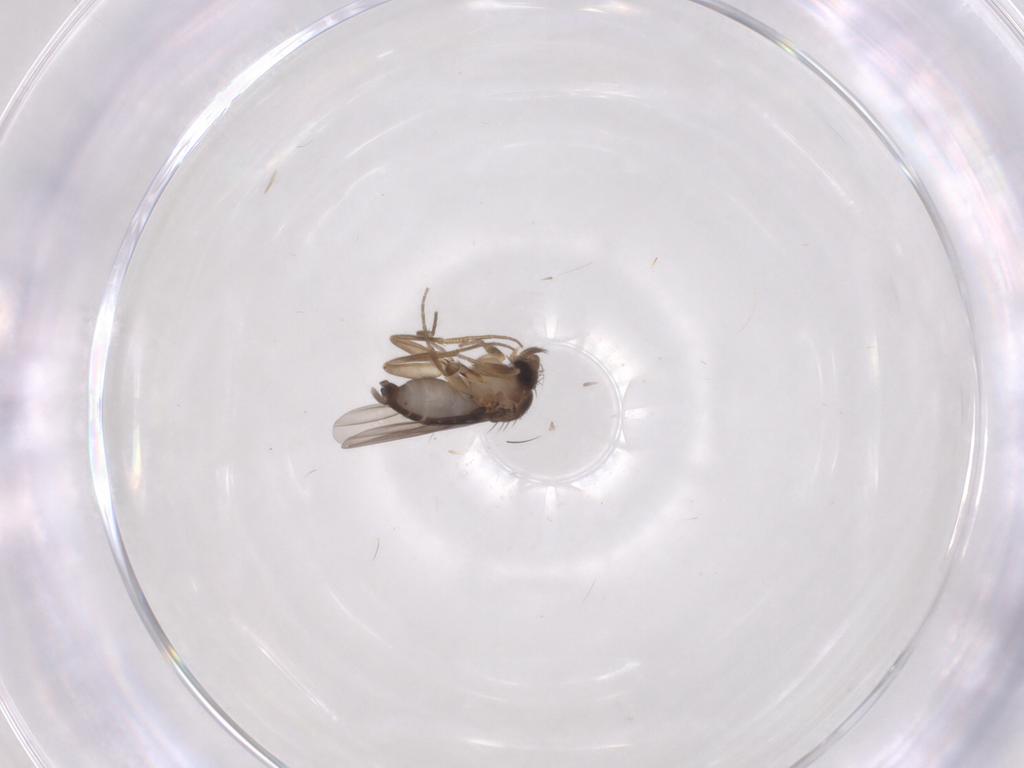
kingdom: Animalia
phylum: Arthropoda
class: Insecta
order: Diptera
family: Phoridae
